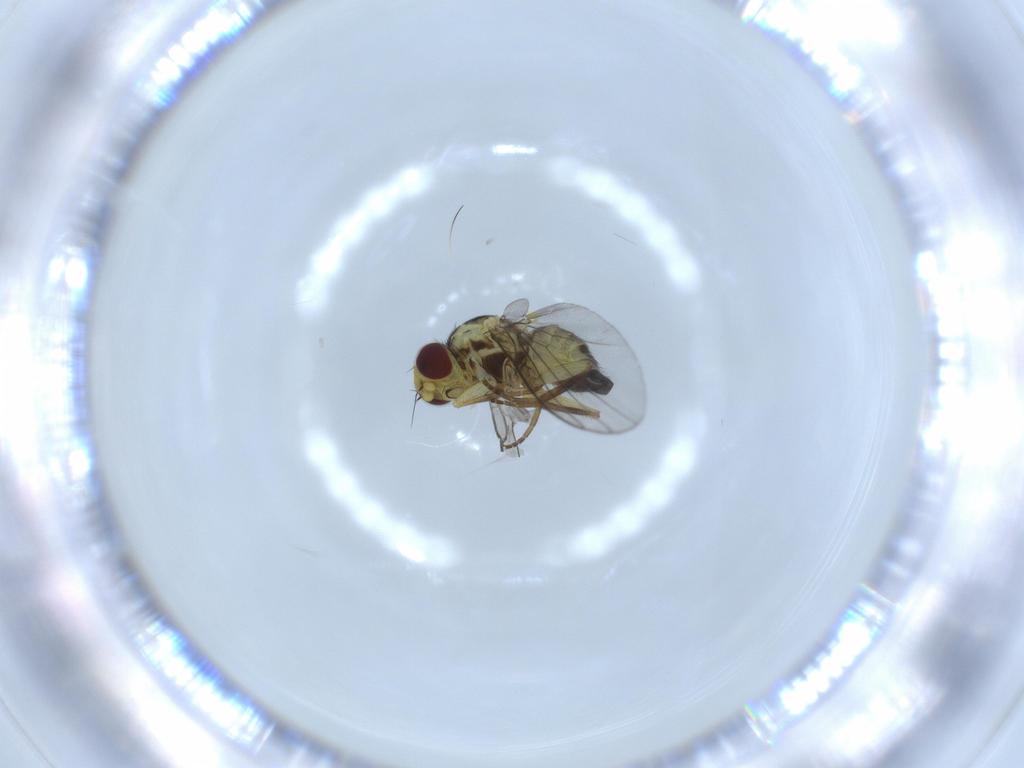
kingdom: Animalia
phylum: Arthropoda
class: Insecta
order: Diptera
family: Agromyzidae
